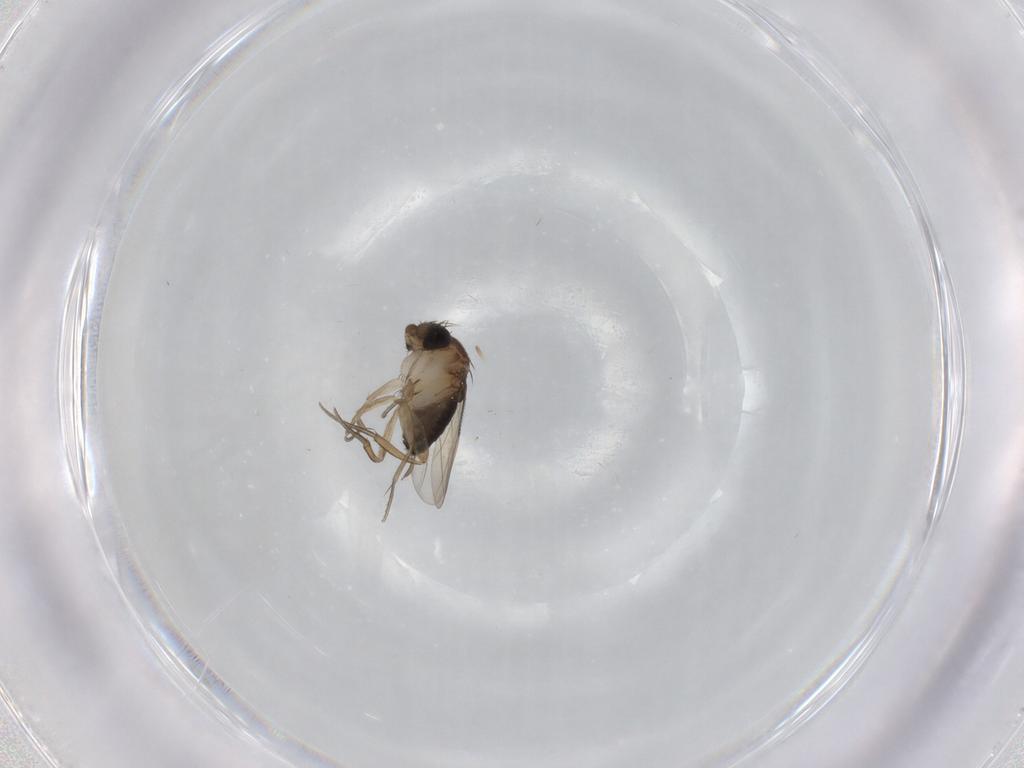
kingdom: Animalia
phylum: Arthropoda
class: Insecta
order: Diptera
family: Phoridae
